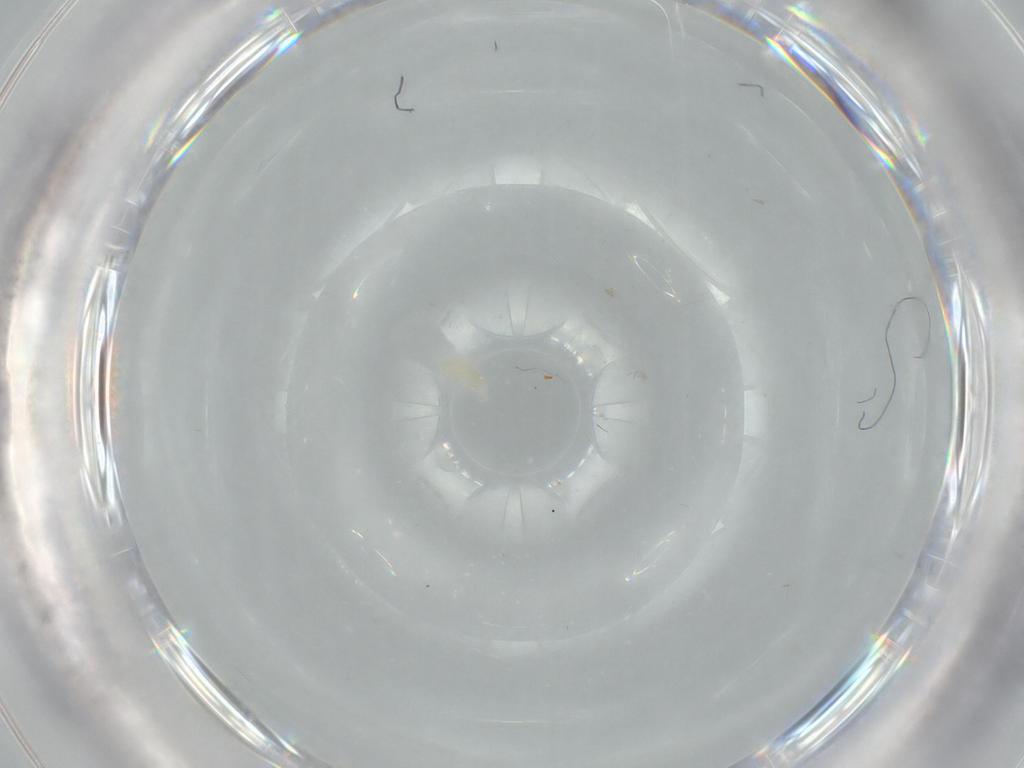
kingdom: Animalia
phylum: Arthropoda
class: Arachnida
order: Trombidiformes
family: Eupodidae
